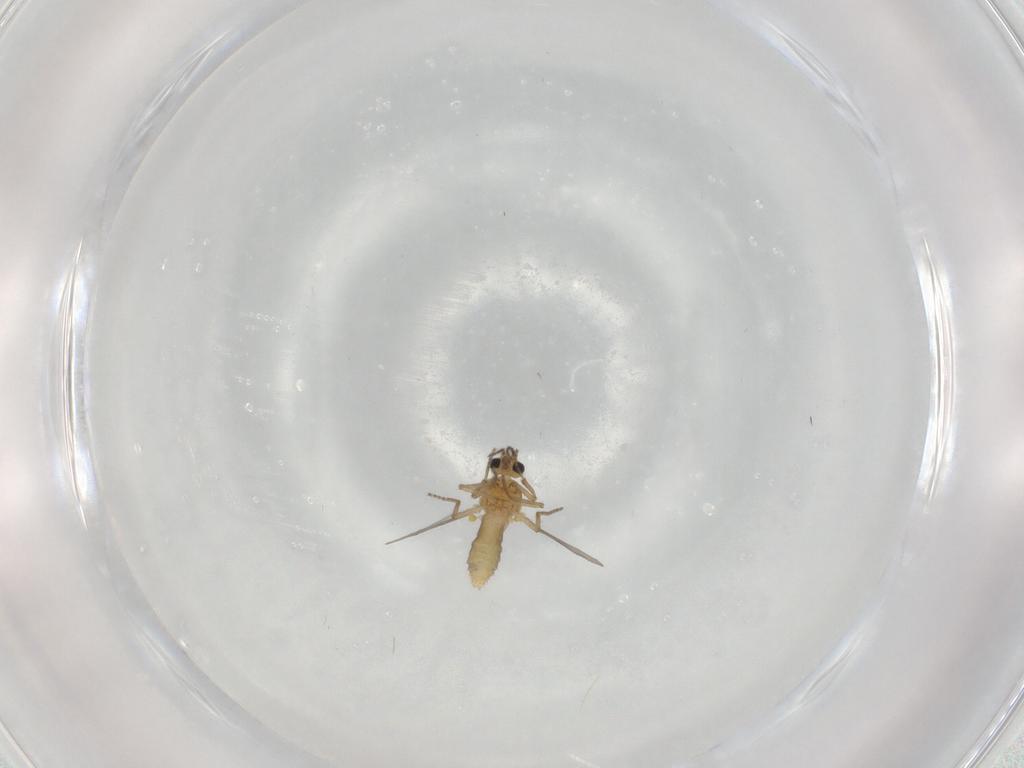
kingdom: Animalia
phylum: Arthropoda
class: Insecta
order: Diptera
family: Ceratopogonidae
